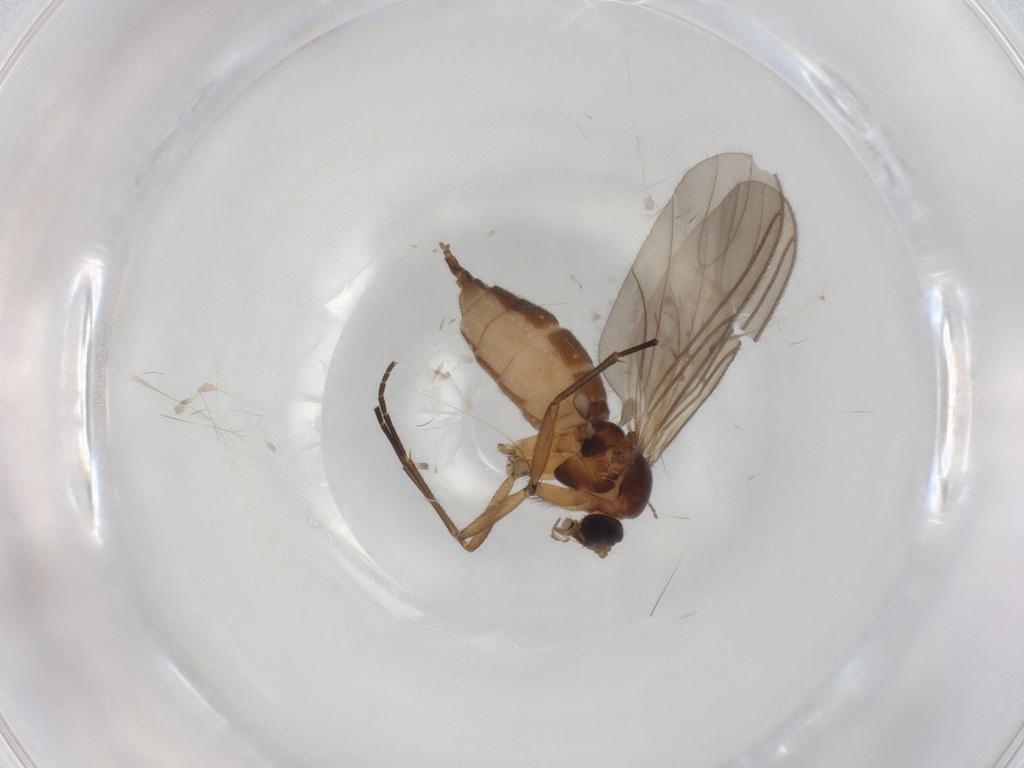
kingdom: Animalia
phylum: Arthropoda
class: Insecta
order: Diptera
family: Sciaridae
